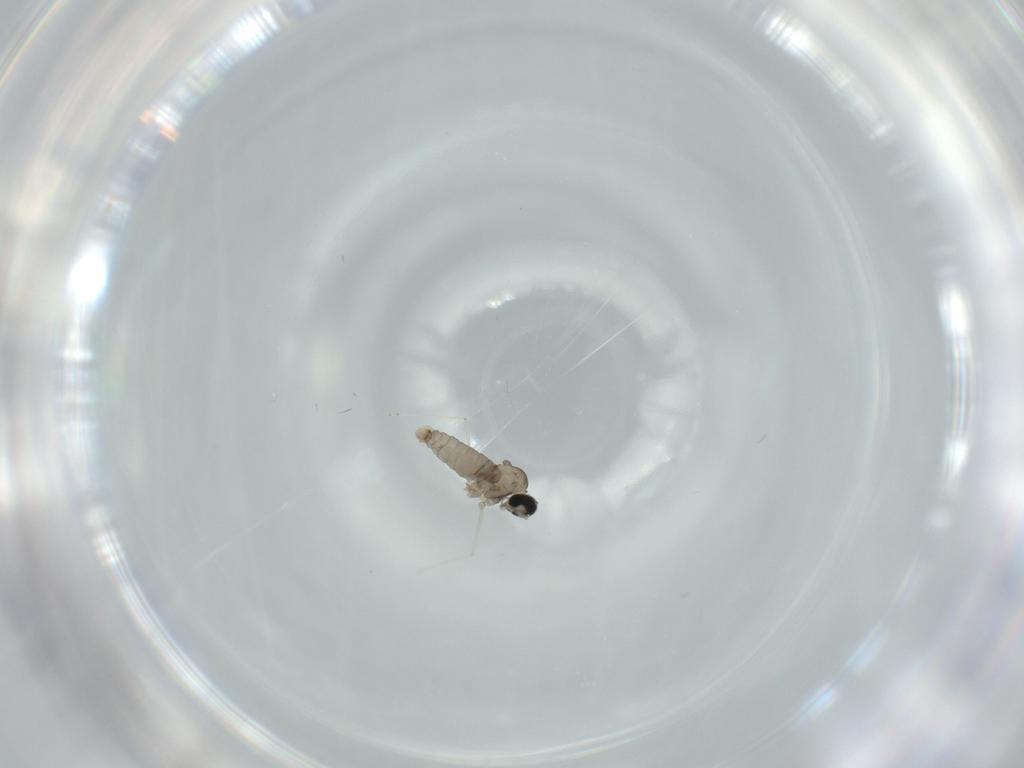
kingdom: Animalia
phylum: Arthropoda
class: Insecta
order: Diptera
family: Cecidomyiidae
